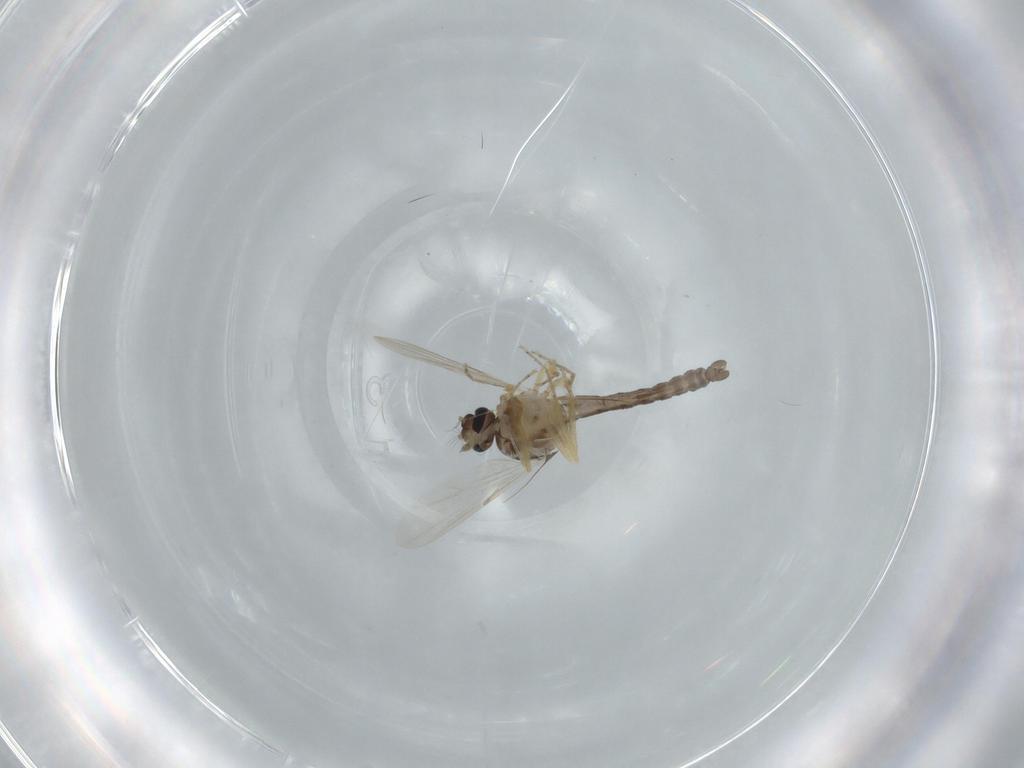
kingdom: Animalia
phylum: Arthropoda
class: Insecta
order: Diptera
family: Ceratopogonidae
